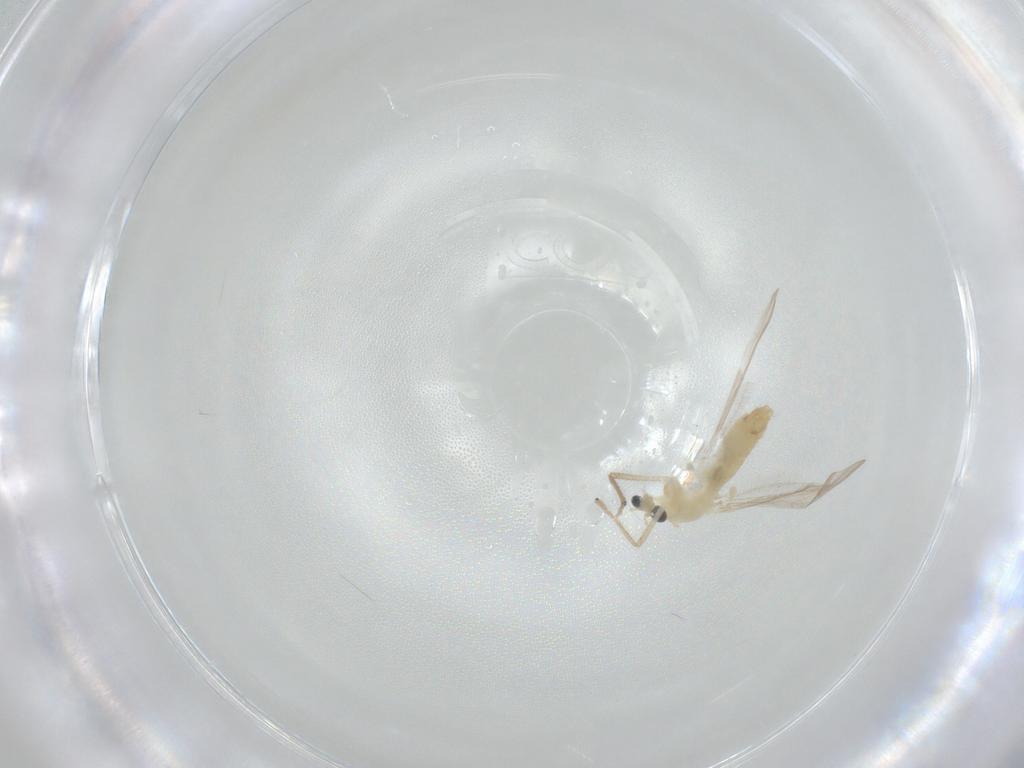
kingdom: Animalia
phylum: Arthropoda
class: Insecta
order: Diptera
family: Chironomidae
